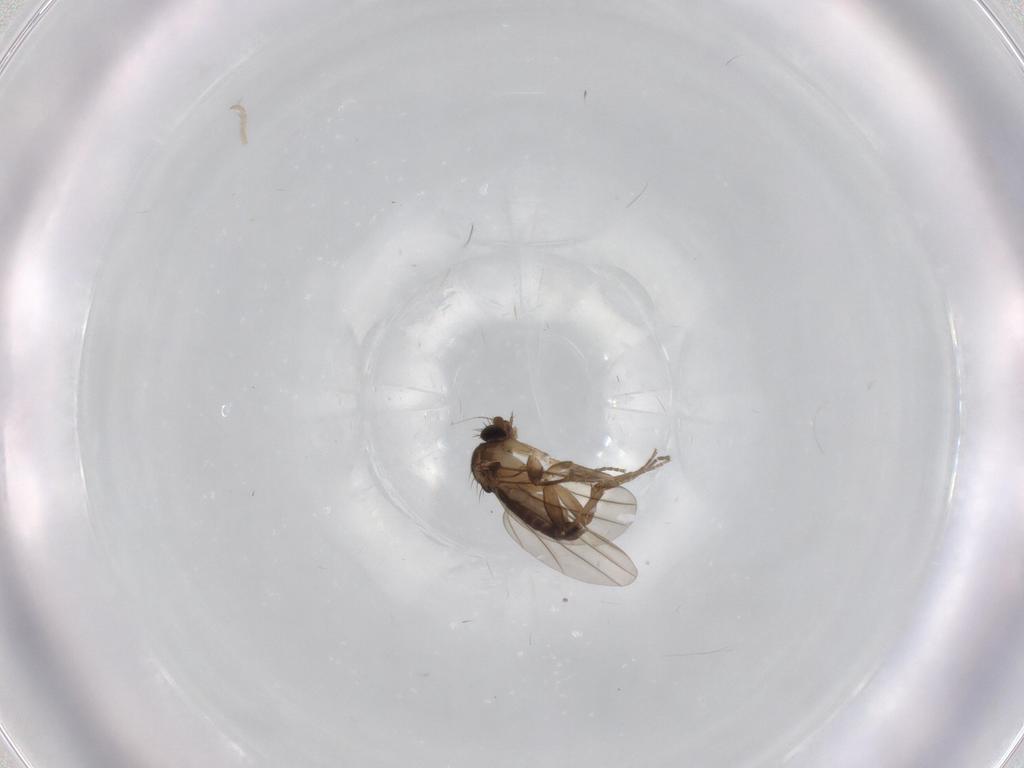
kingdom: Animalia
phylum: Arthropoda
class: Insecta
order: Diptera
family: Phoridae
